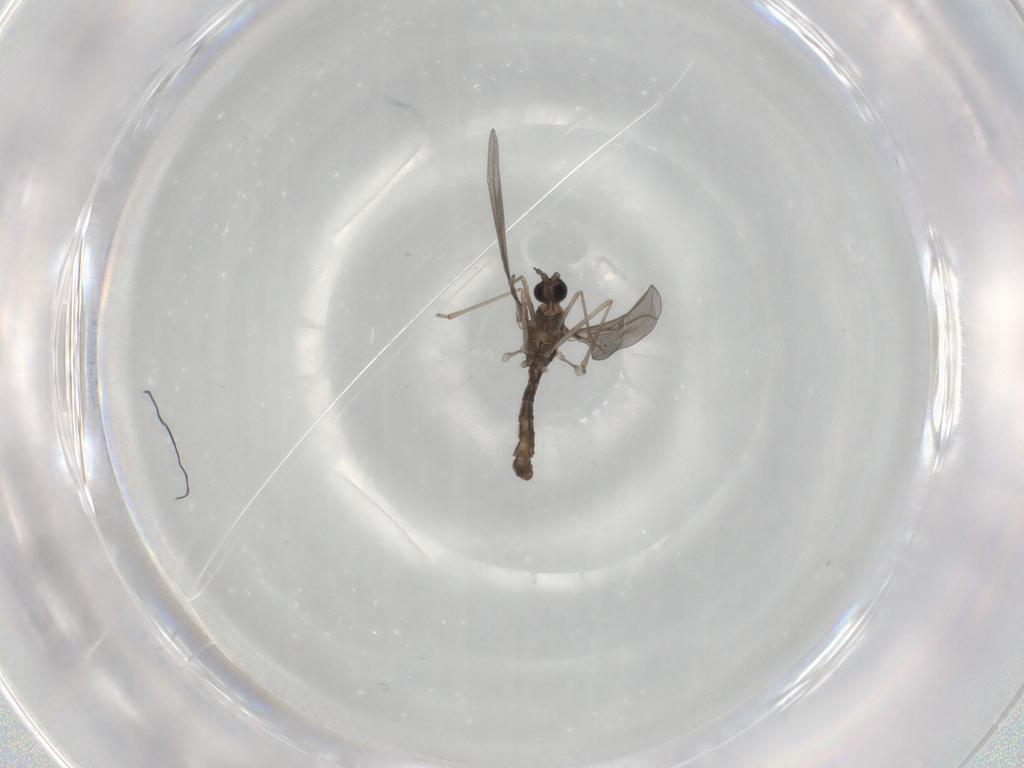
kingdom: Animalia
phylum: Arthropoda
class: Insecta
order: Diptera
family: Cecidomyiidae
